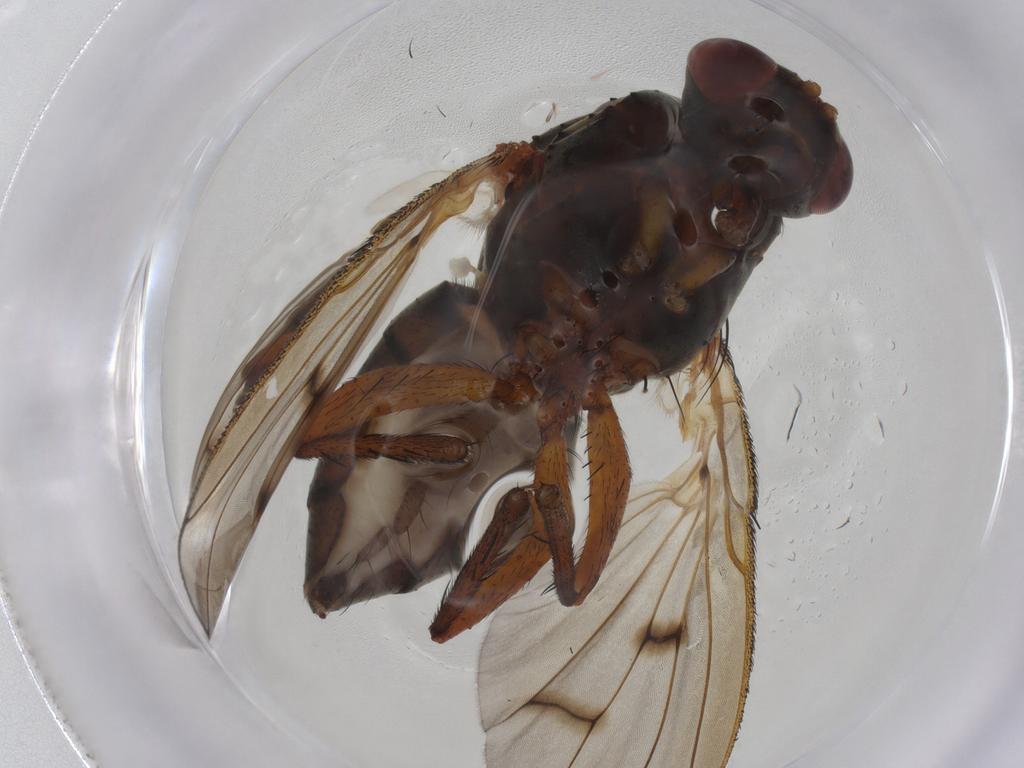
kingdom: Animalia
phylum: Arthropoda
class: Insecta
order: Diptera
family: Anthomyiidae
